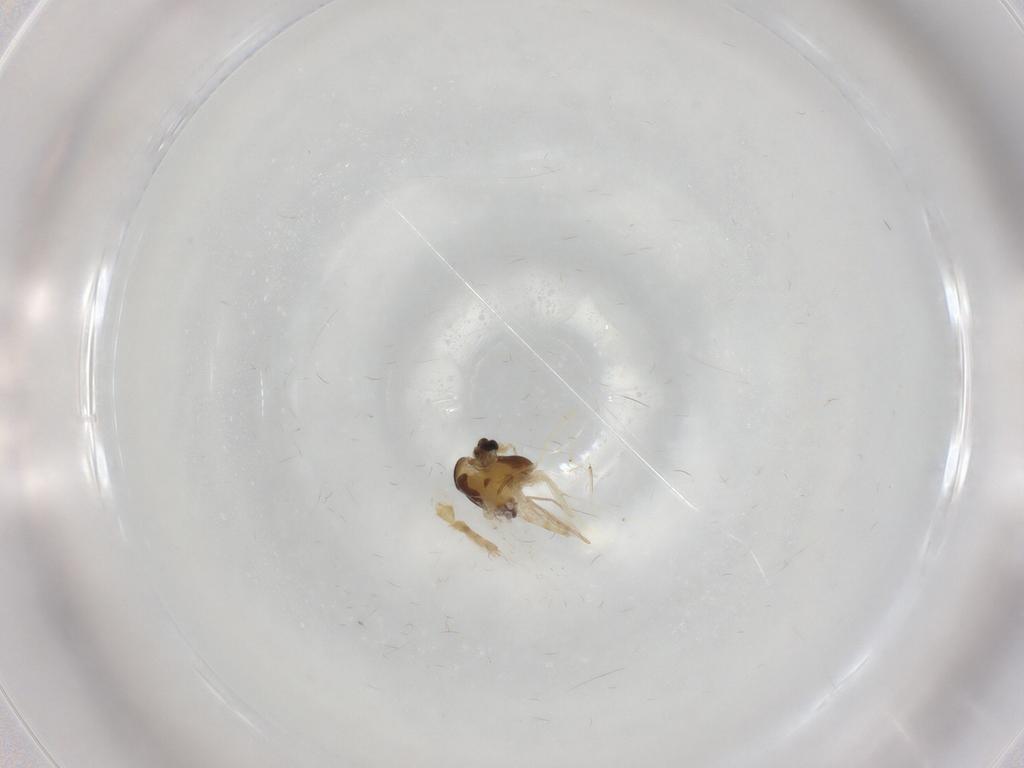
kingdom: Animalia
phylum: Arthropoda
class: Insecta
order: Diptera
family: Chironomidae
